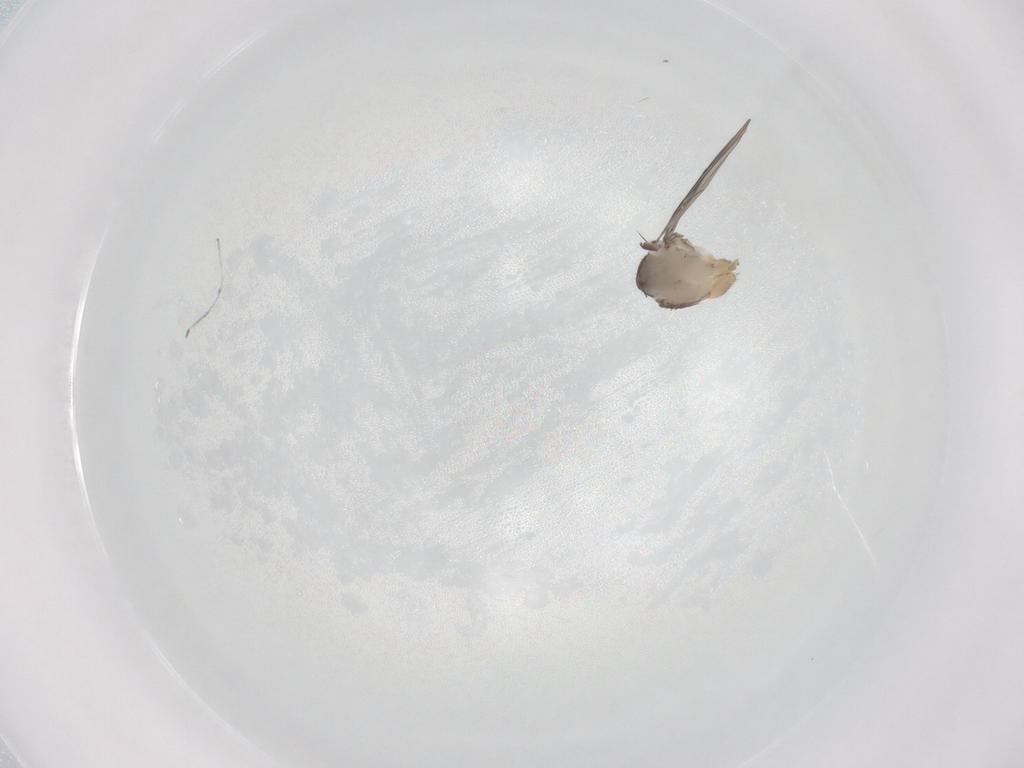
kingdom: Animalia
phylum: Arthropoda
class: Insecta
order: Diptera
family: Phoridae
